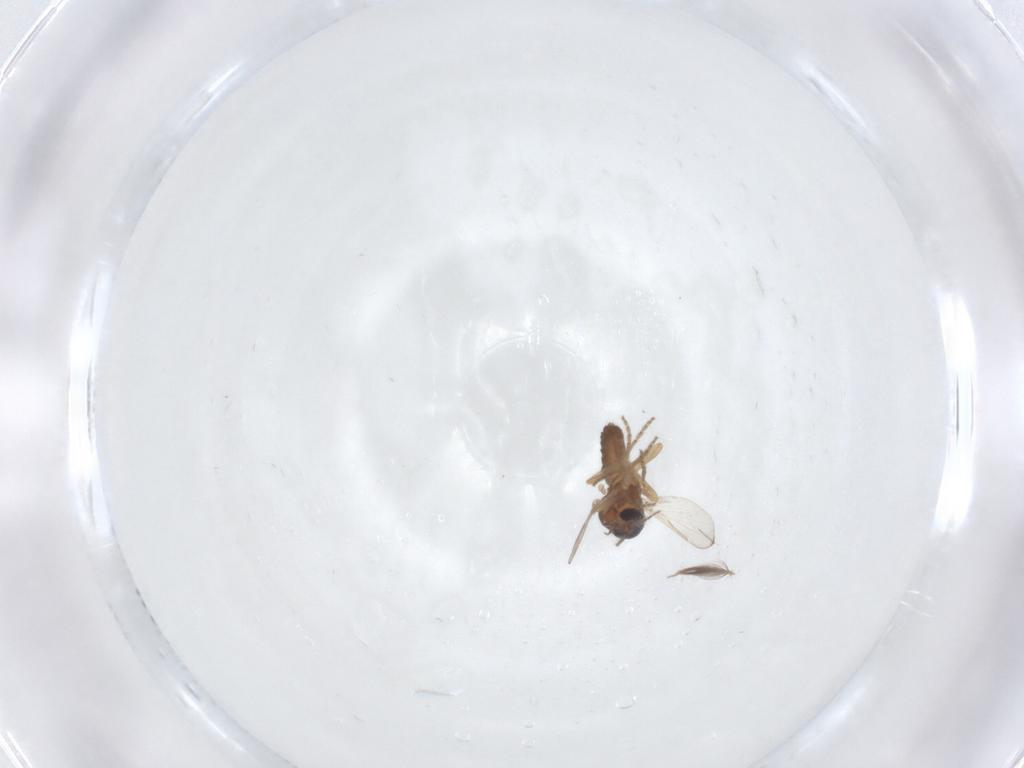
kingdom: Animalia
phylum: Arthropoda
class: Insecta
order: Diptera
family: Ceratopogonidae
